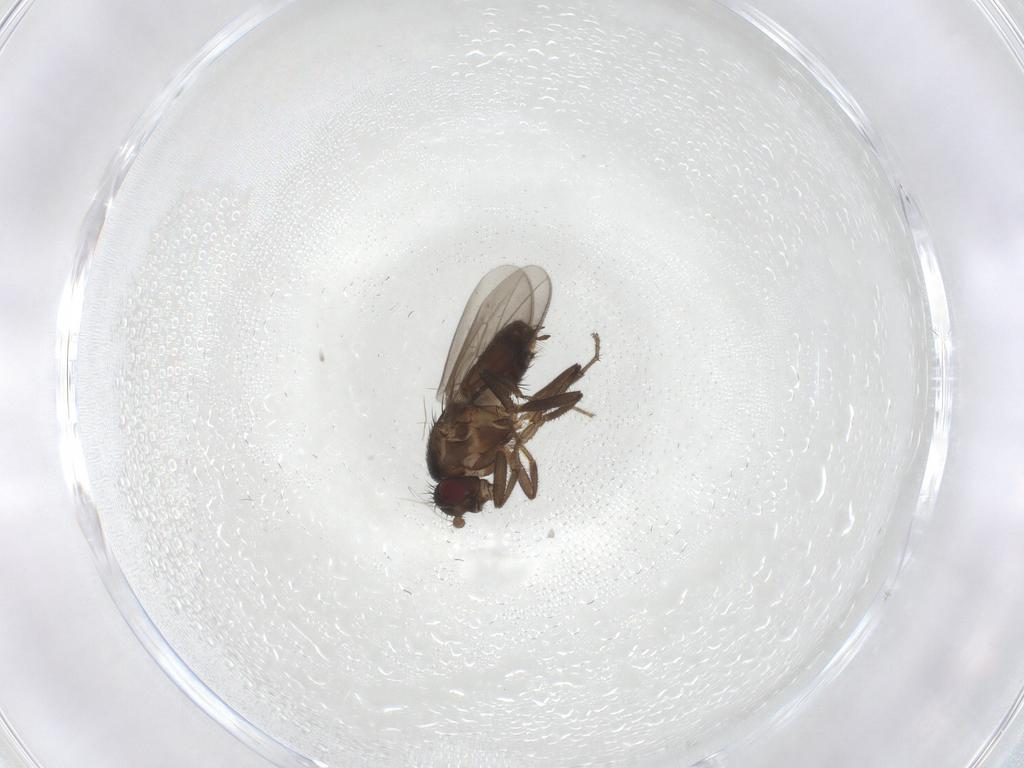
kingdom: Animalia
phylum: Arthropoda
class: Insecta
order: Diptera
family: Sphaeroceridae
